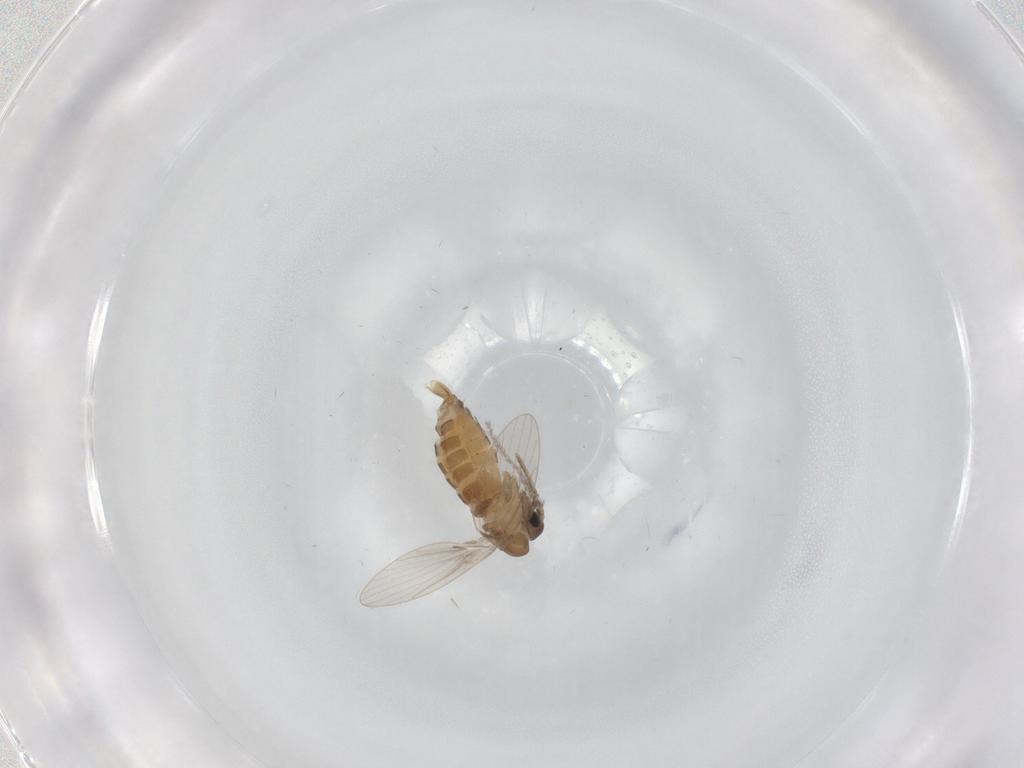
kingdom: Animalia
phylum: Arthropoda
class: Insecta
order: Diptera
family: Psychodidae
